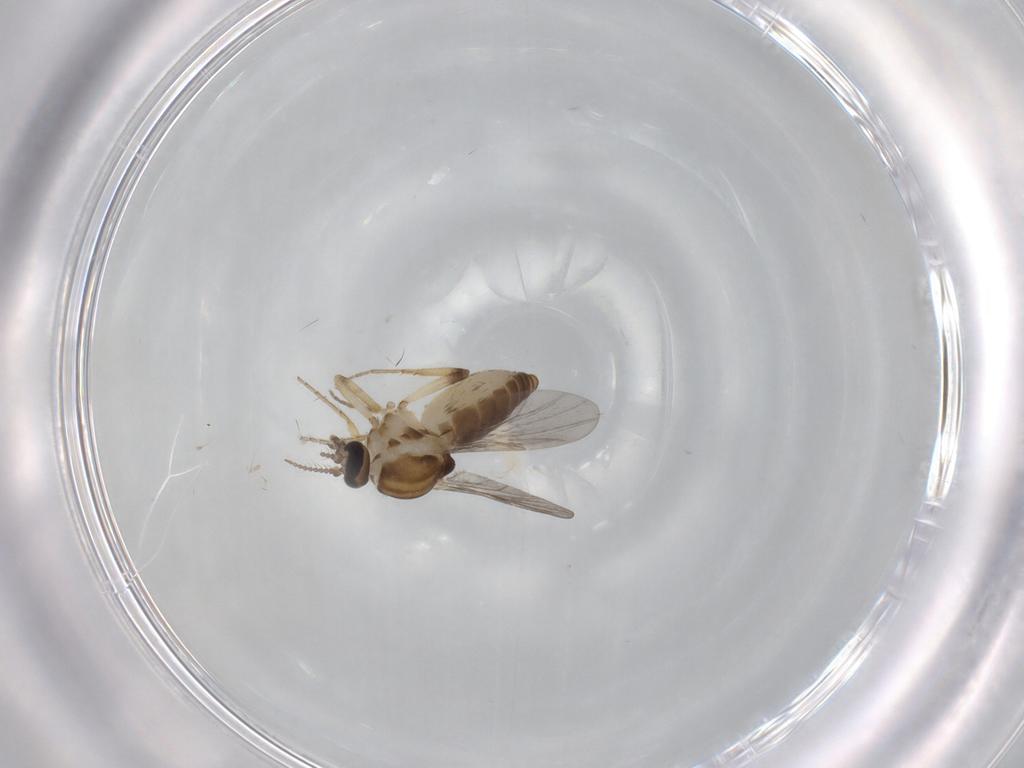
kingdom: Animalia
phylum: Arthropoda
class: Insecta
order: Diptera
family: Ceratopogonidae
